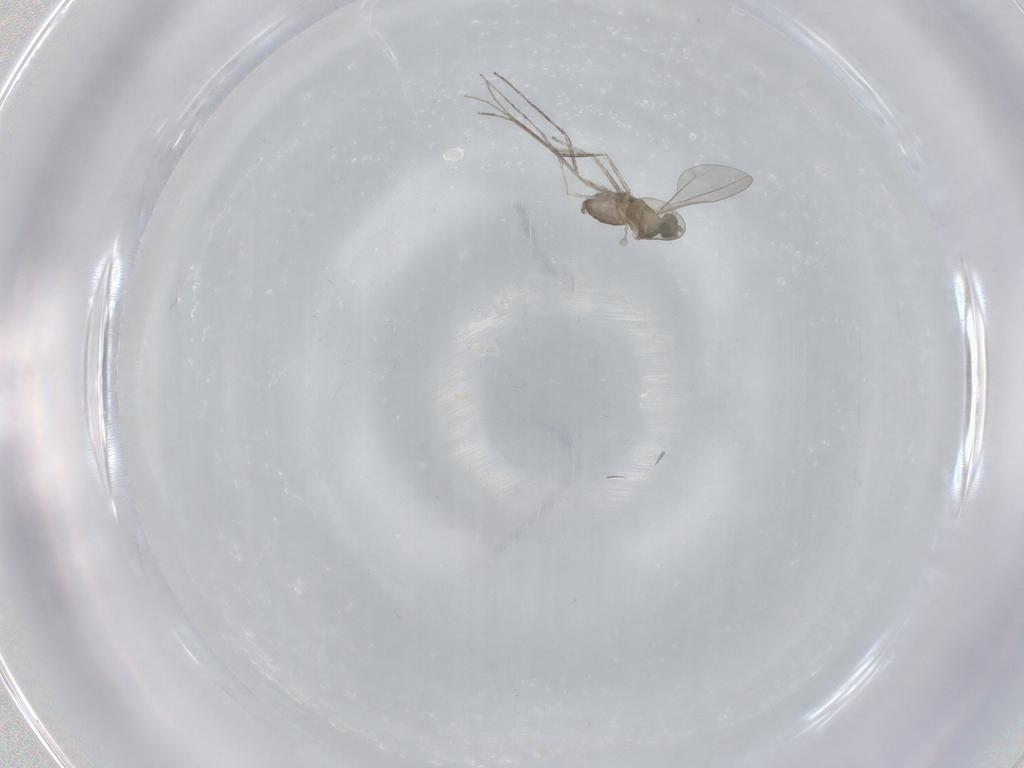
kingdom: Animalia
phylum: Arthropoda
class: Insecta
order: Diptera
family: Cecidomyiidae
